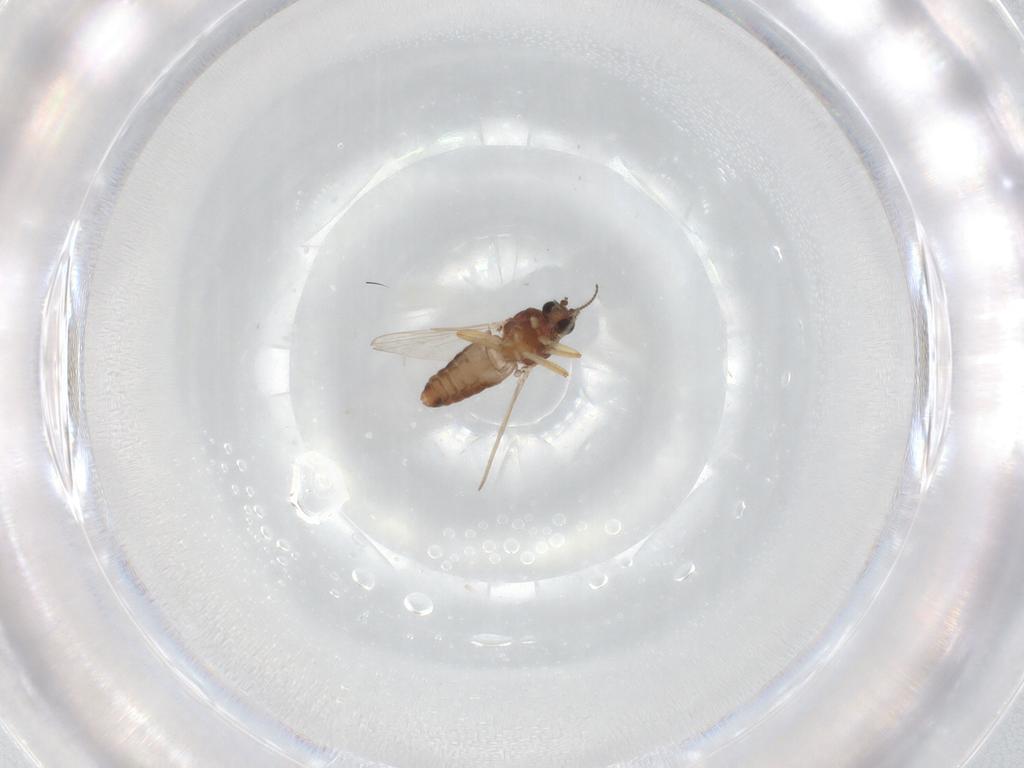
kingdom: Animalia
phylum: Arthropoda
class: Insecta
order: Diptera
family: Ceratopogonidae
